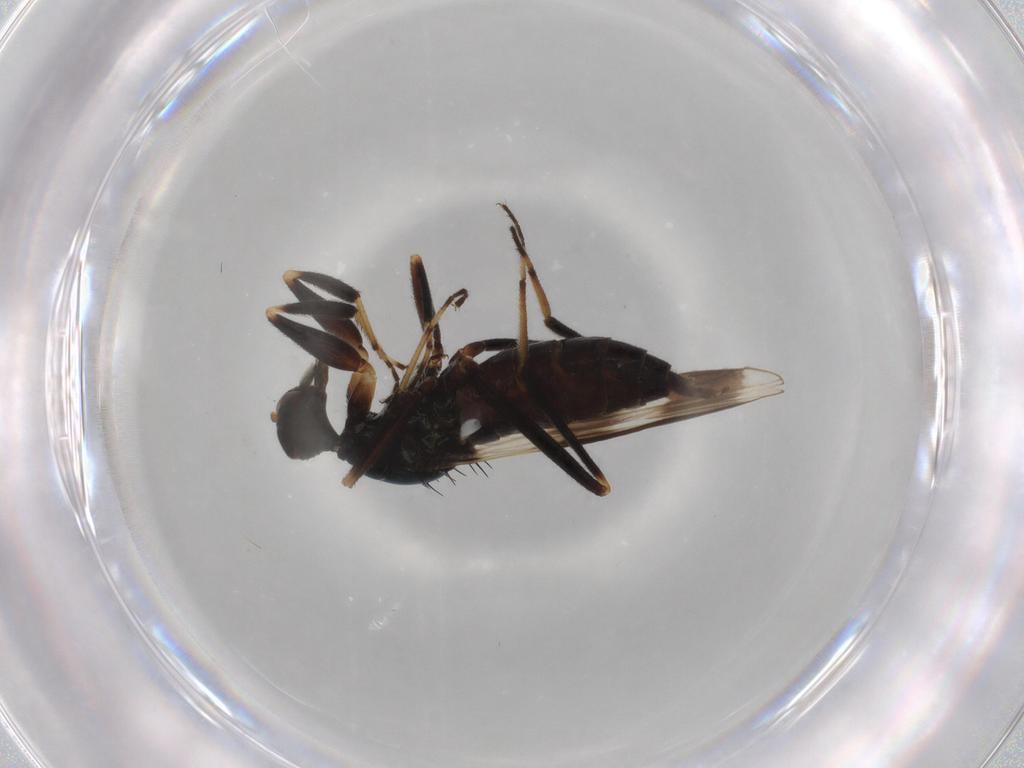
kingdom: Animalia
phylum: Arthropoda
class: Insecta
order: Diptera
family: Hybotidae
